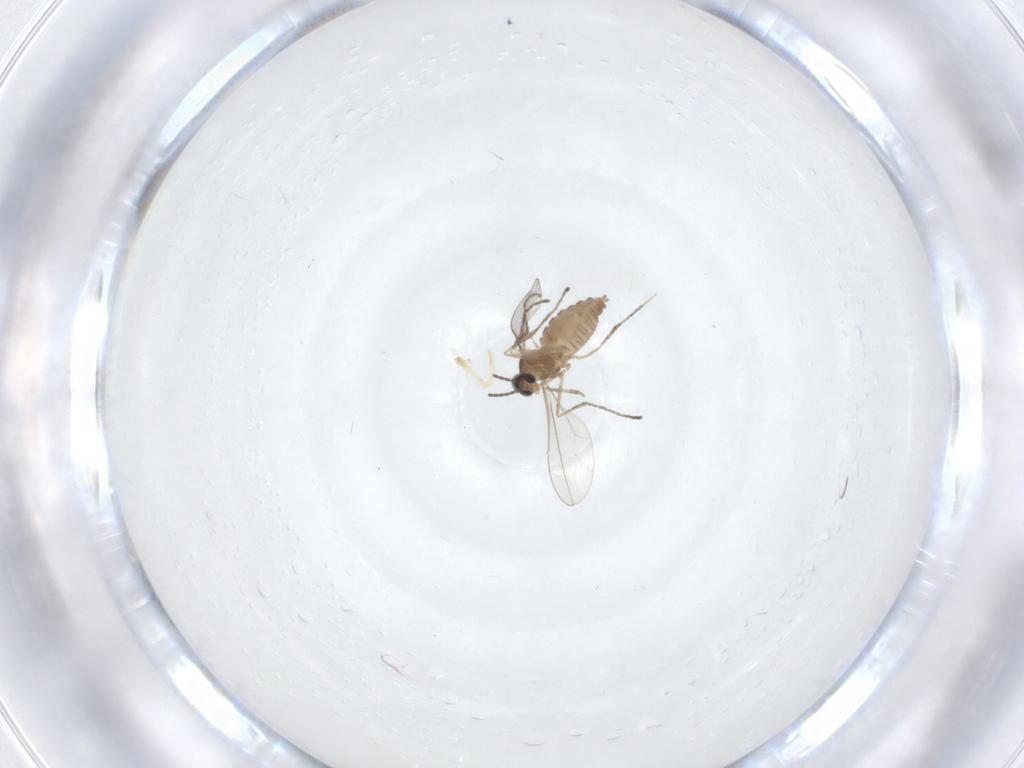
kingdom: Animalia
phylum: Arthropoda
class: Insecta
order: Diptera
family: Cecidomyiidae
